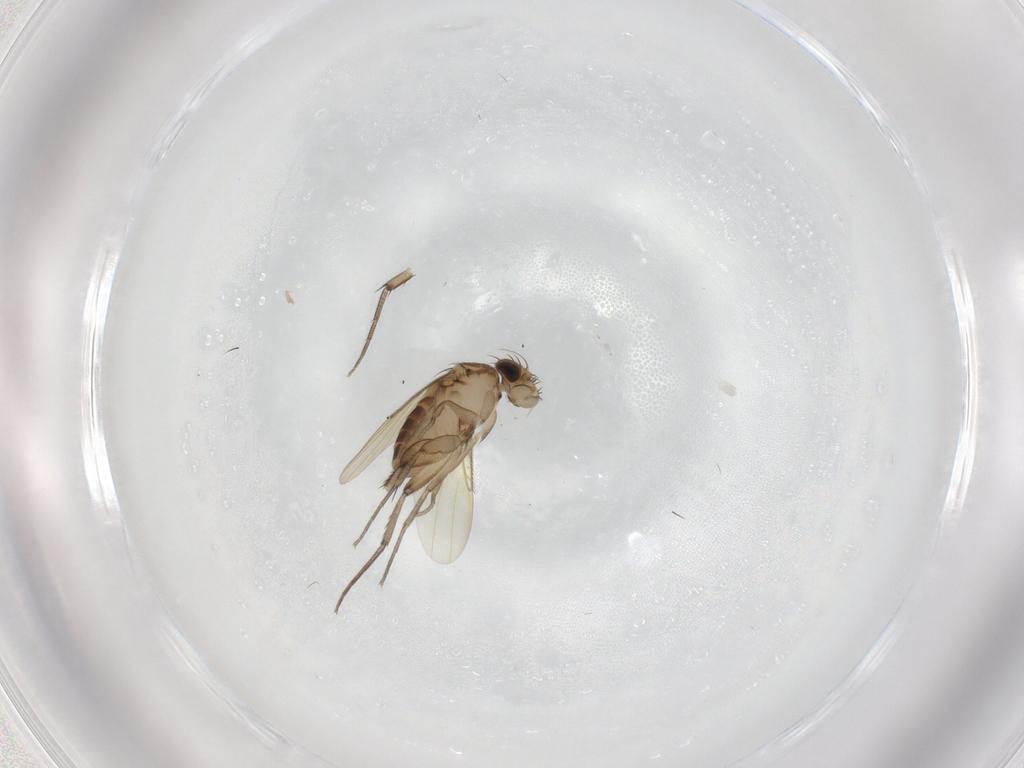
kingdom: Animalia
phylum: Arthropoda
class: Insecta
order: Diptera
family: Phoridae
